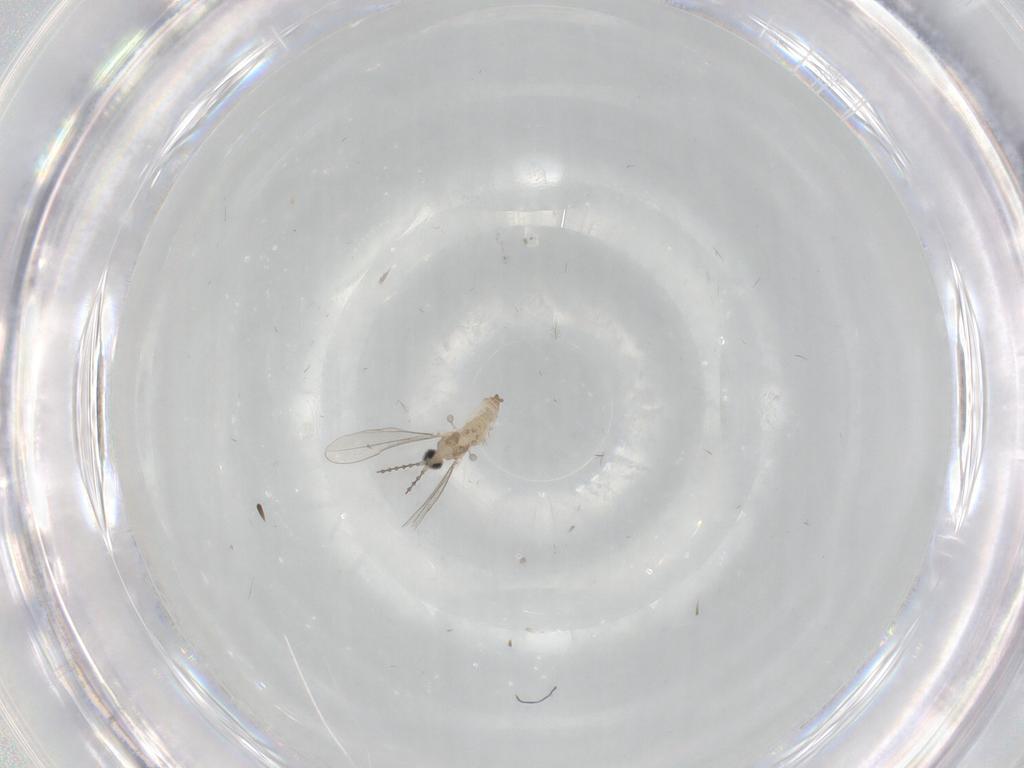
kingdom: Animalia
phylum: Arthropoda
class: Insecta
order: Diptera
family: Cecidomyiidae
